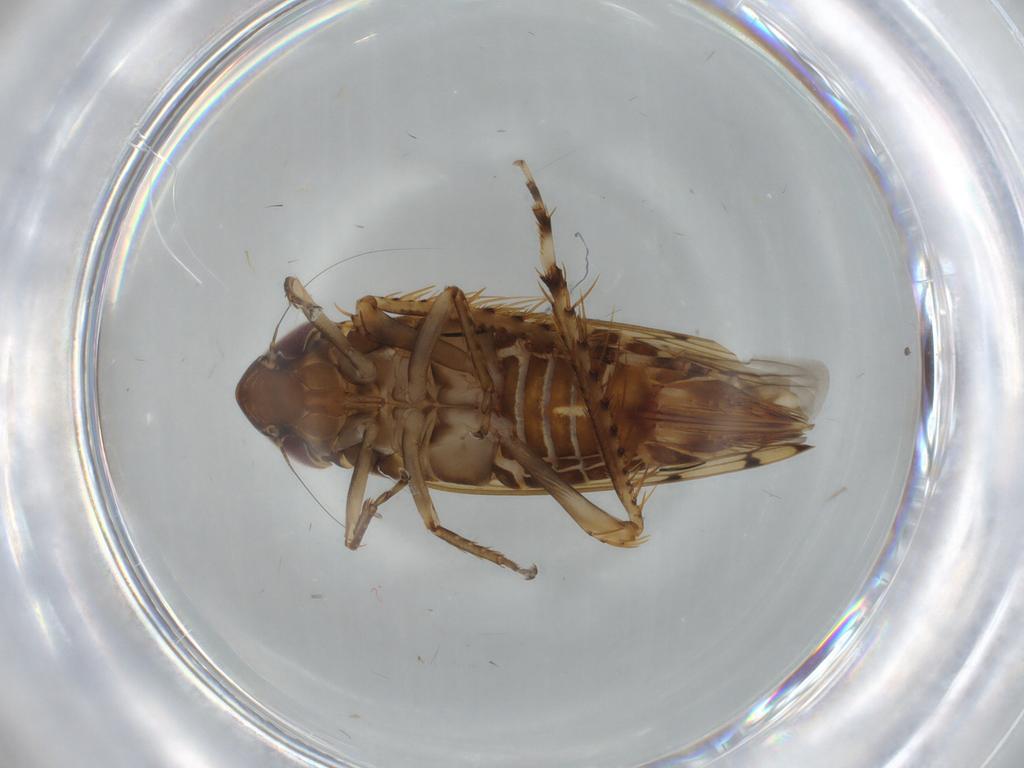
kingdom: Animalia
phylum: Arthropoda
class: Insecta
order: Hemiptera
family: Cicadellidae
